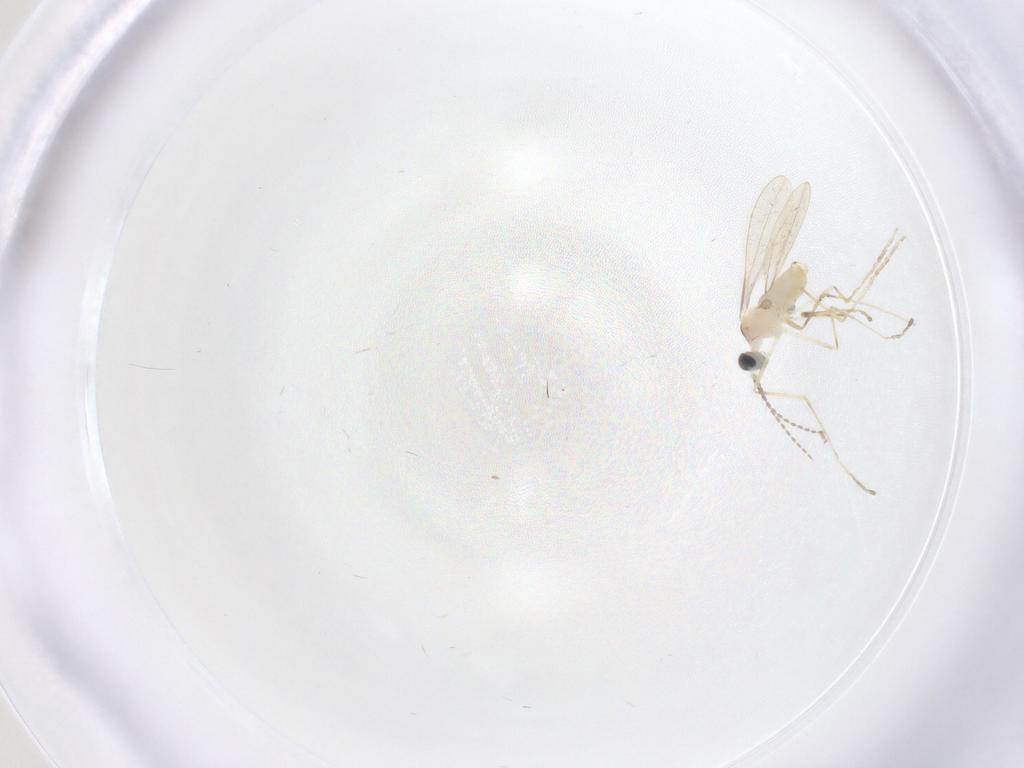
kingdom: Animalia
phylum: Arthropoda
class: Insecta
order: Diptera
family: Cecidomyiidae
